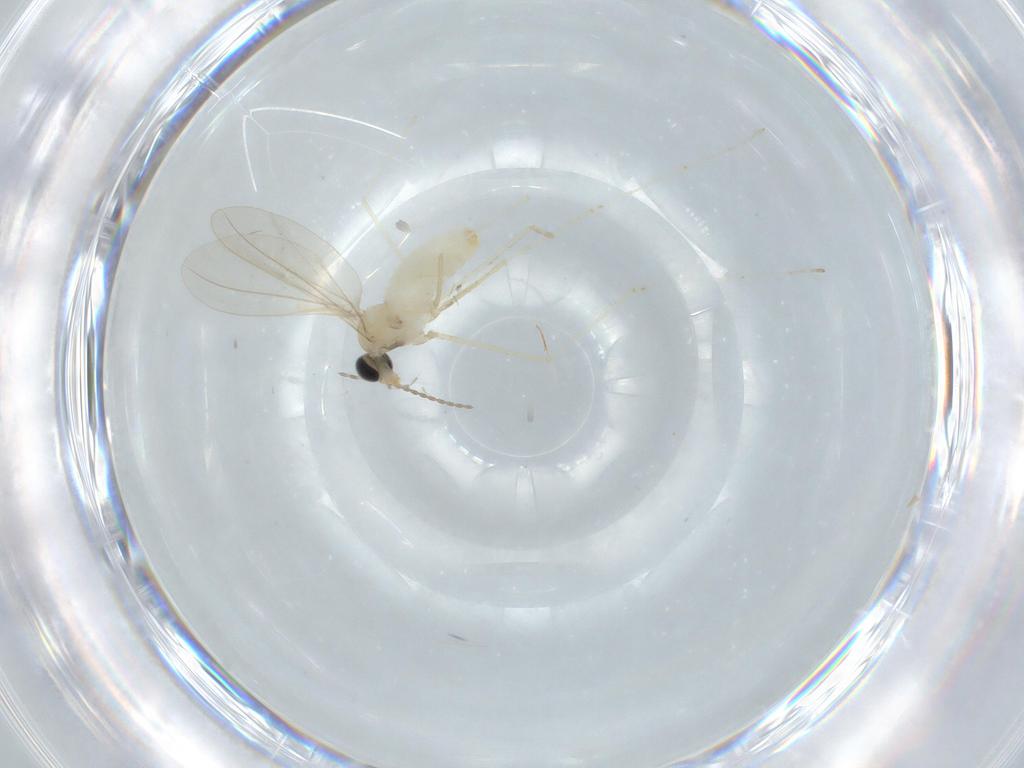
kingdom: Animalia
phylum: Arthropoda
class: Insecta
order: Diptera
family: Cecidomyiidae
